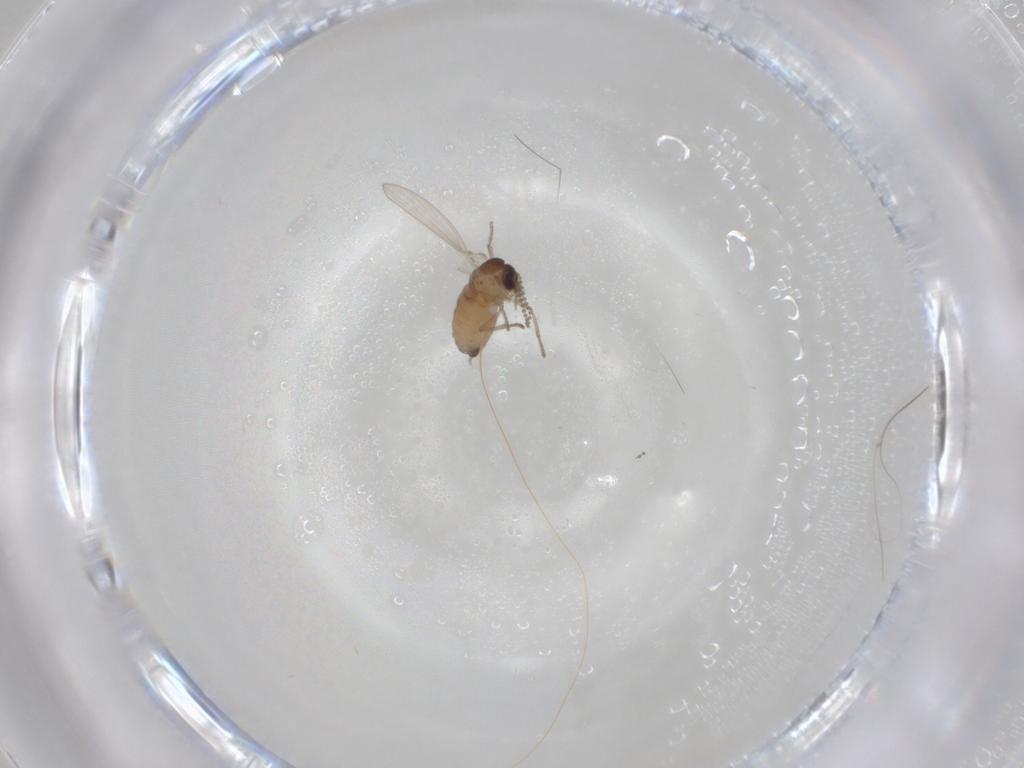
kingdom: Animalia
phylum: Arthropoda
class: Insecta
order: Diptera
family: Psychodidae
